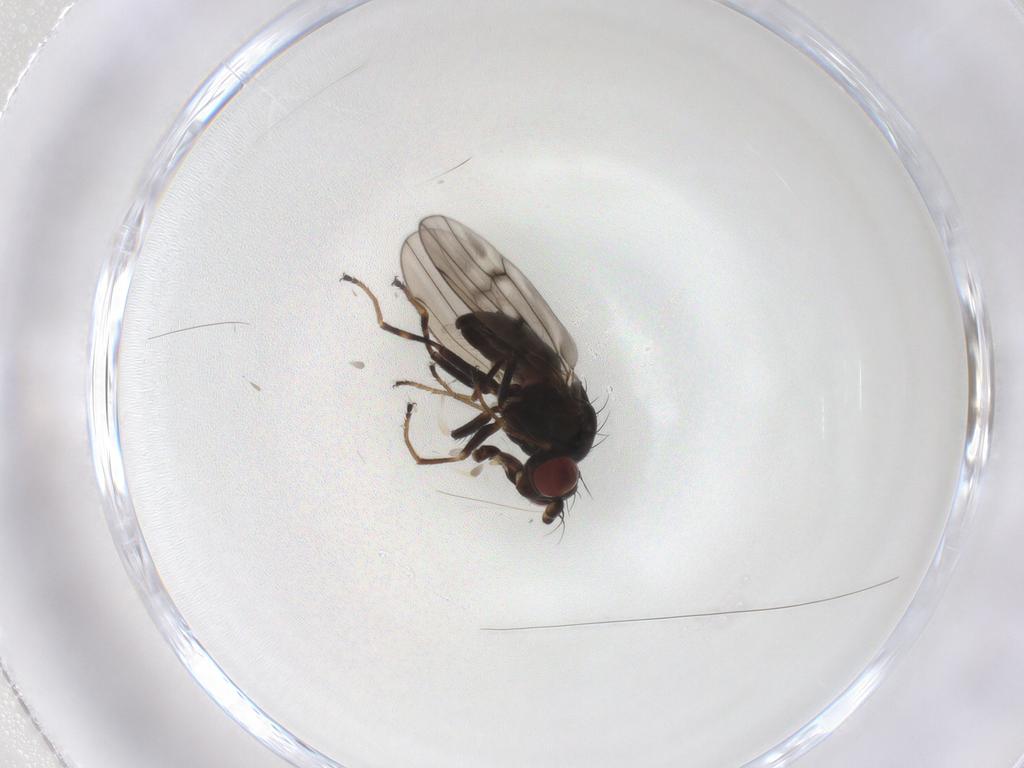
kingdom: Animalia
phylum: Arthropoda
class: Insecta
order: Diptera
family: Ephydridae
